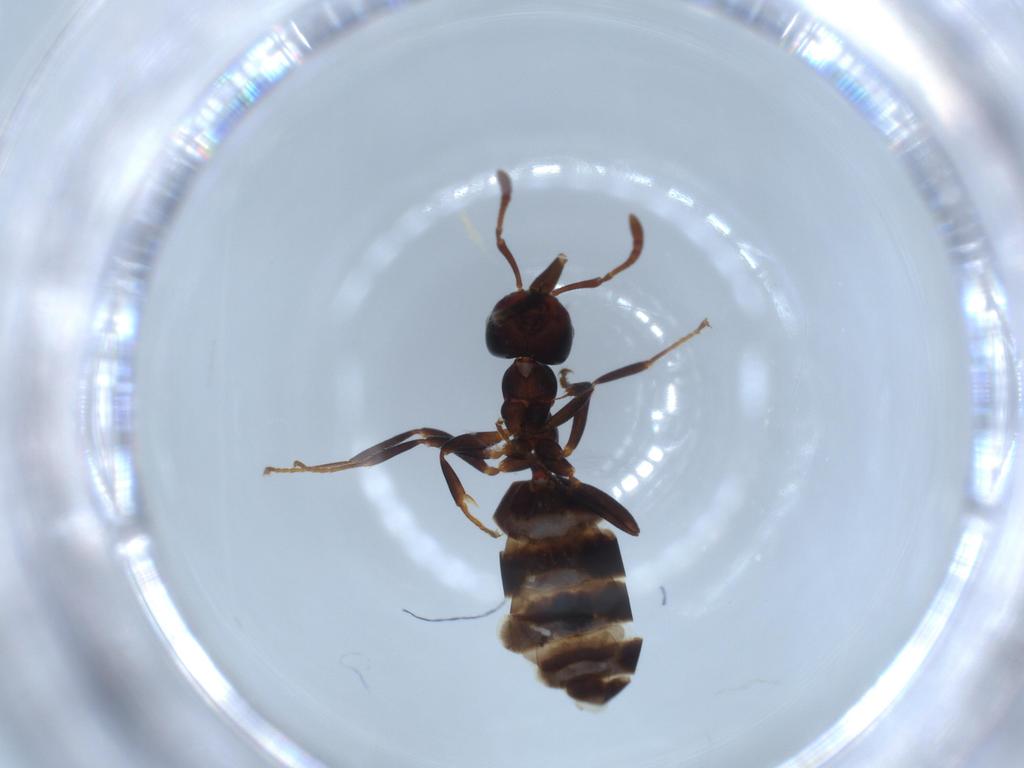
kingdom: Animalia
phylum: Arthropoda
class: Insecta
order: Hymenoptera
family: Formicidae
